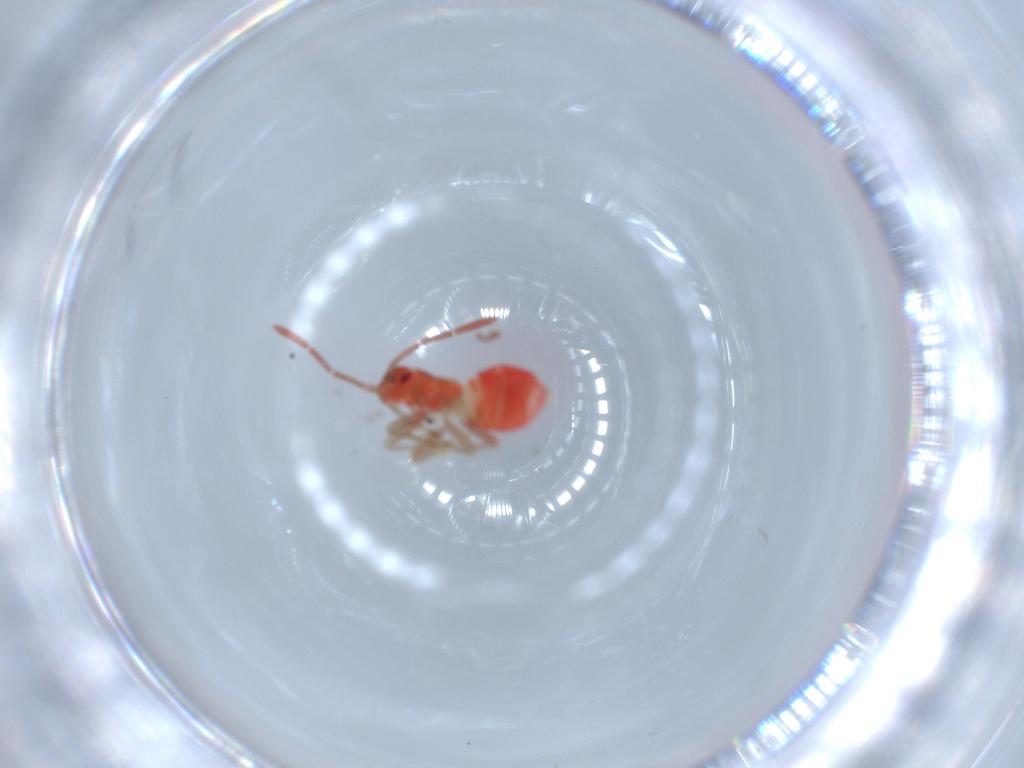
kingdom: Animalia
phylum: Arthropoda
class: Insecta
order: Hemiptera
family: Miridae
